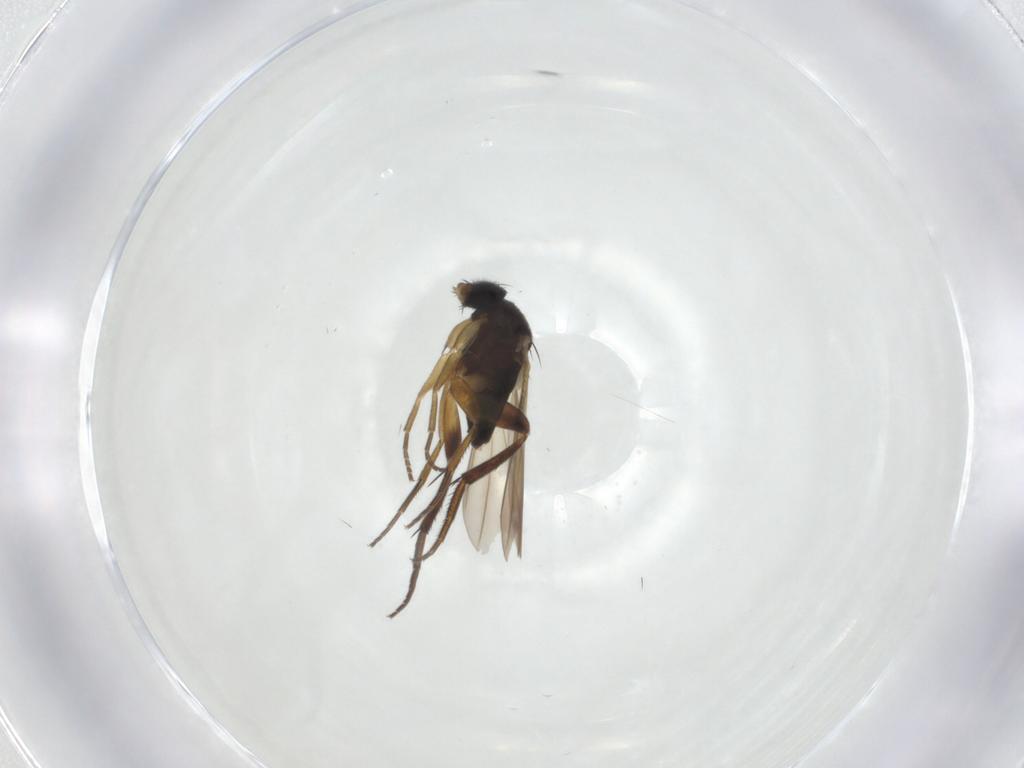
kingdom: Animalia
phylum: Arthropoda
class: Insecta
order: Diptera
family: Phoridae
